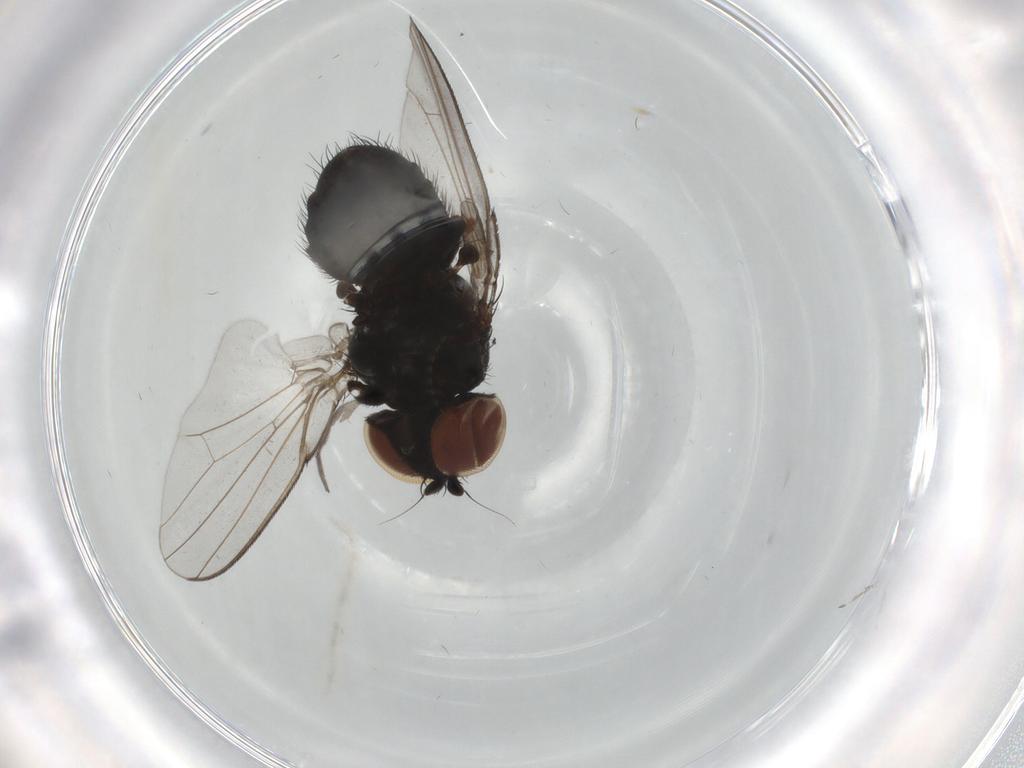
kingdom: Animalia
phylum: Arthropoda
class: Insecta
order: Diptera
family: Milichiidae
